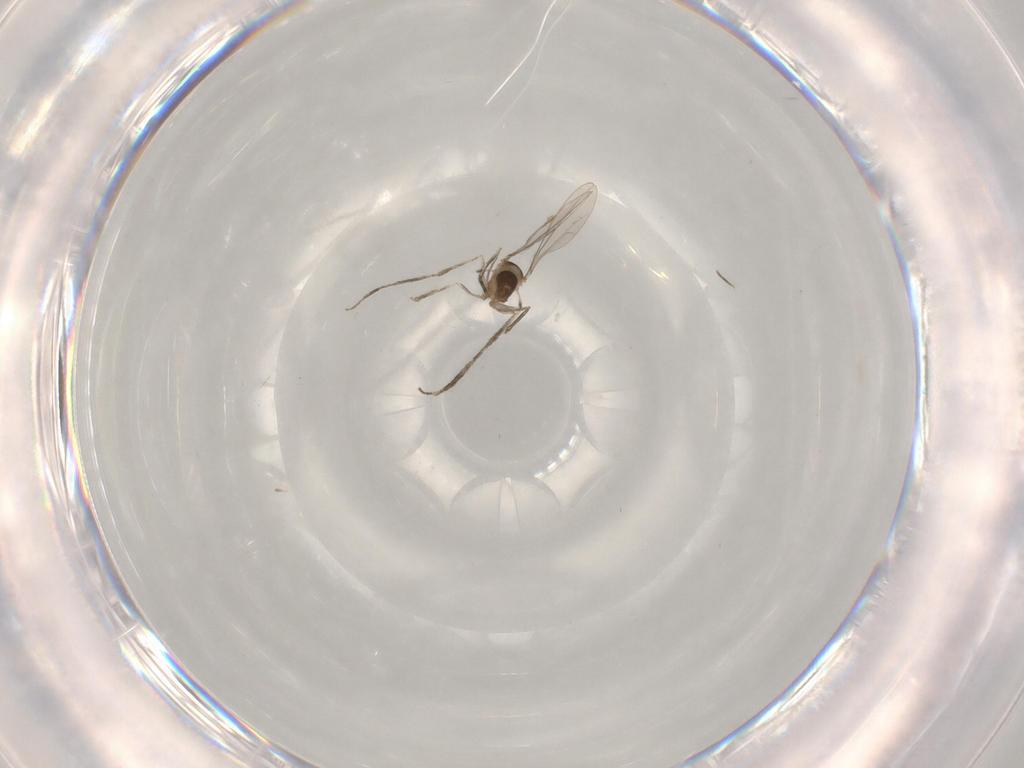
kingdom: Animalia
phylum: Arthropoda
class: Insecta
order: Diptera
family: Cecidomyiidae
